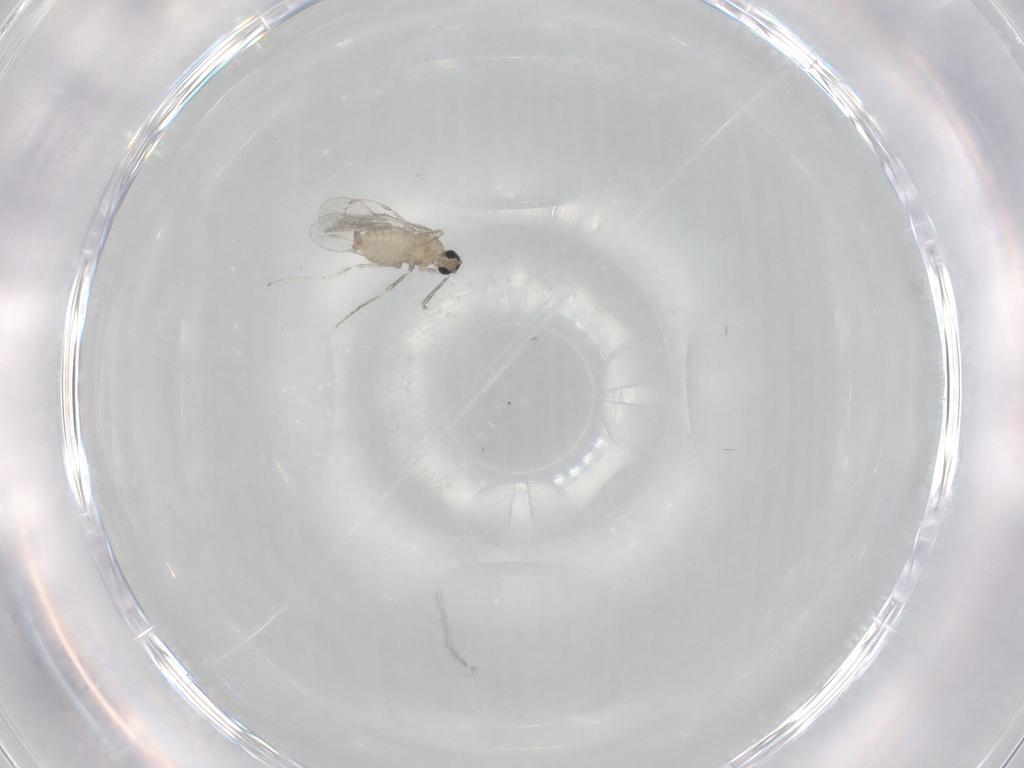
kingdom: Animalia
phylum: Arthropoda
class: Insecta
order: Diptera
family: Cecidomyiidae
